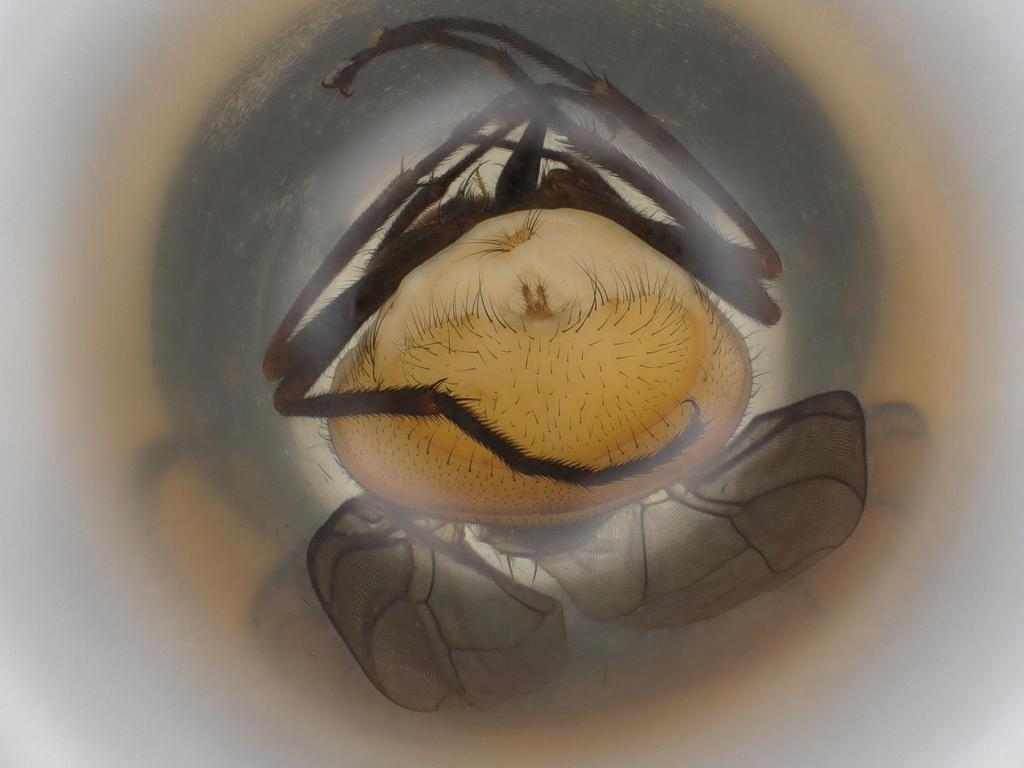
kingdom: Animalia
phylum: Arthropoda
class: Insecta
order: Diptera
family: Muscidae
